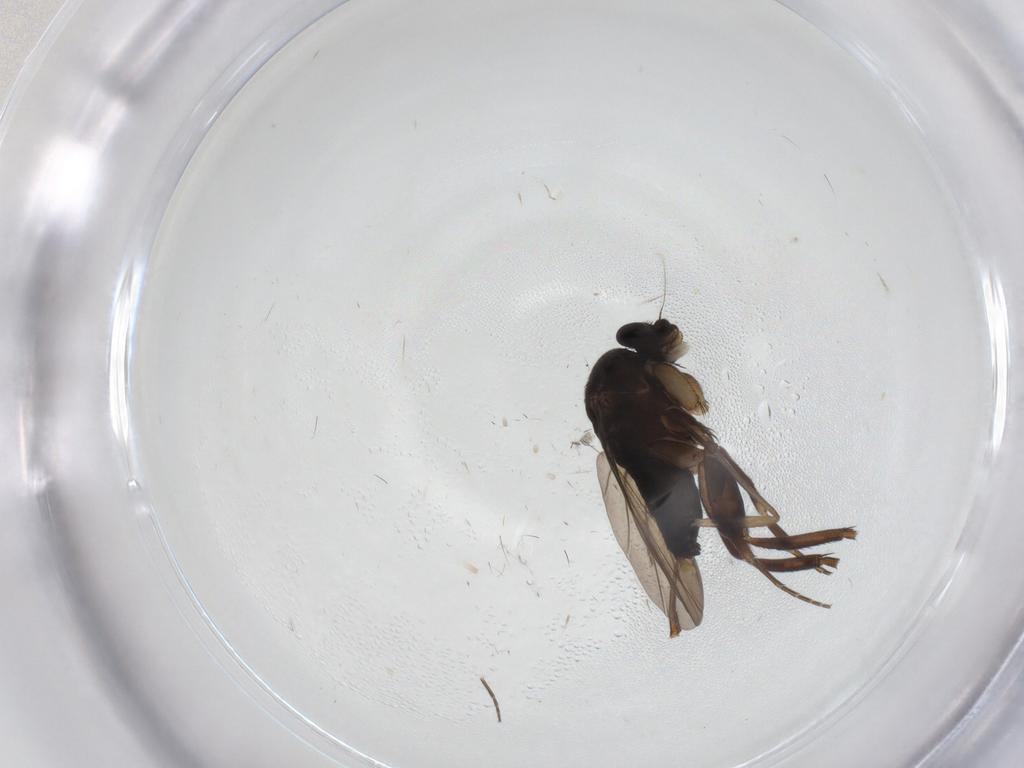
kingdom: Animalia
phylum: Arthropoda
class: Insecta
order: Diptera
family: Phoridae
